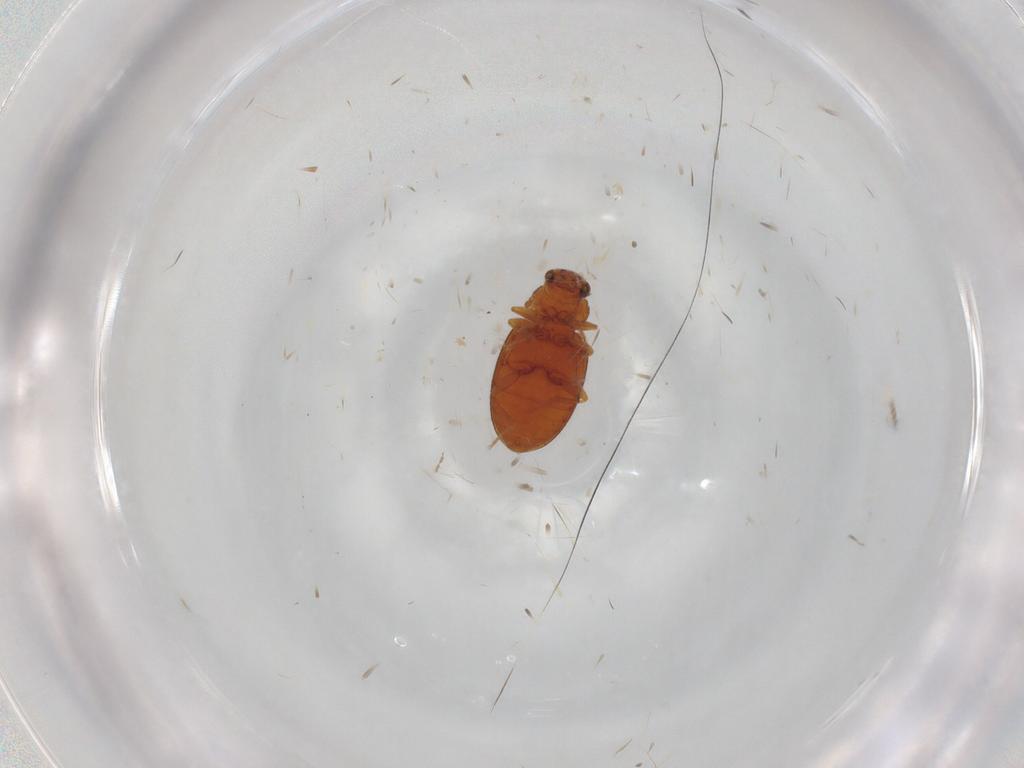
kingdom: Animalia
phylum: Arthropoda
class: Insecta
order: Coleoptera
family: Latridiidae
